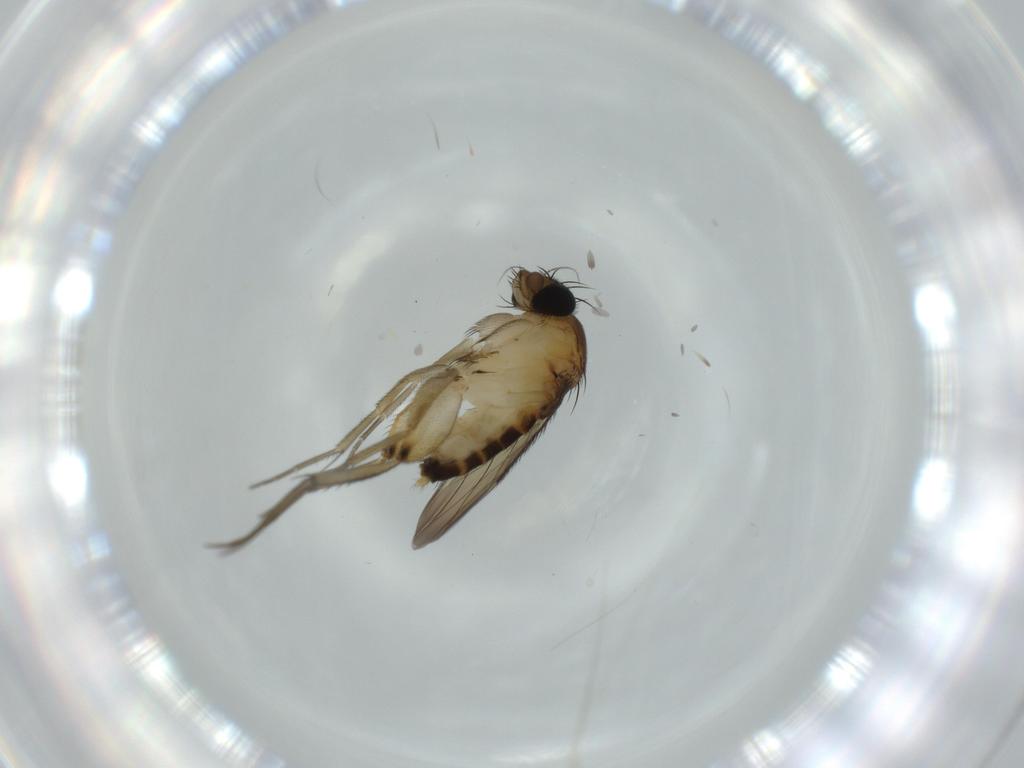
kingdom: Animalia
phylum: Arthropoda
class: Insecta
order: Diptera
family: Phoridae
